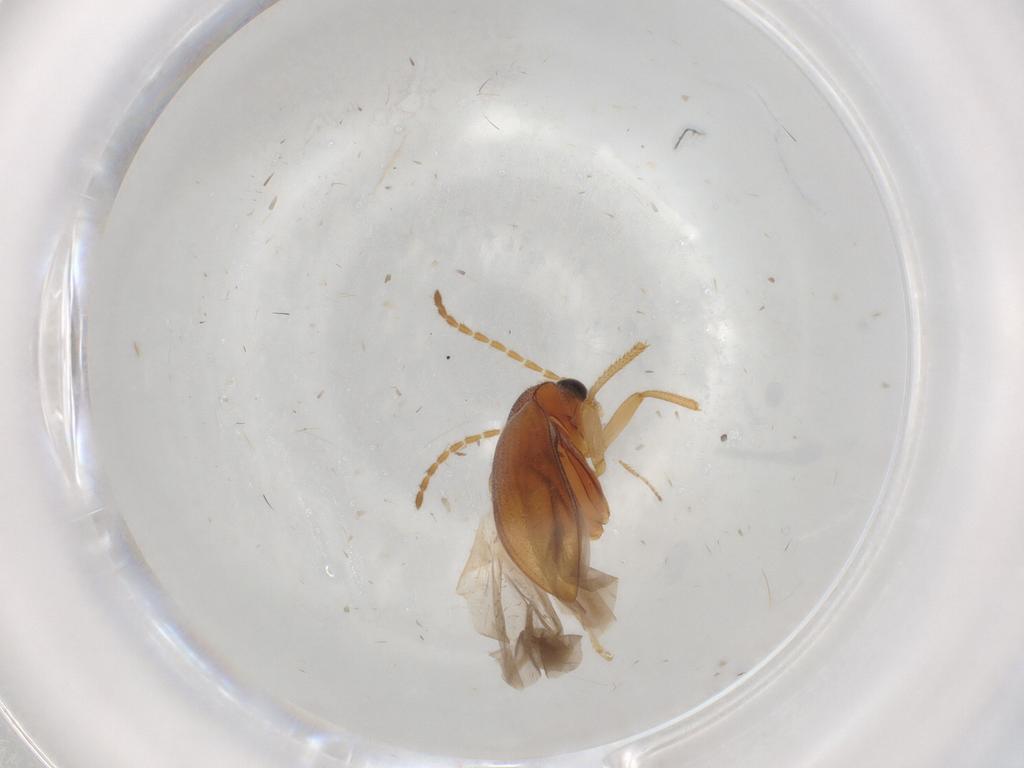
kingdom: Animalia
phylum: Arthropoda
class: Insecta
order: Coleoptera
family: Ptilodactylidae
